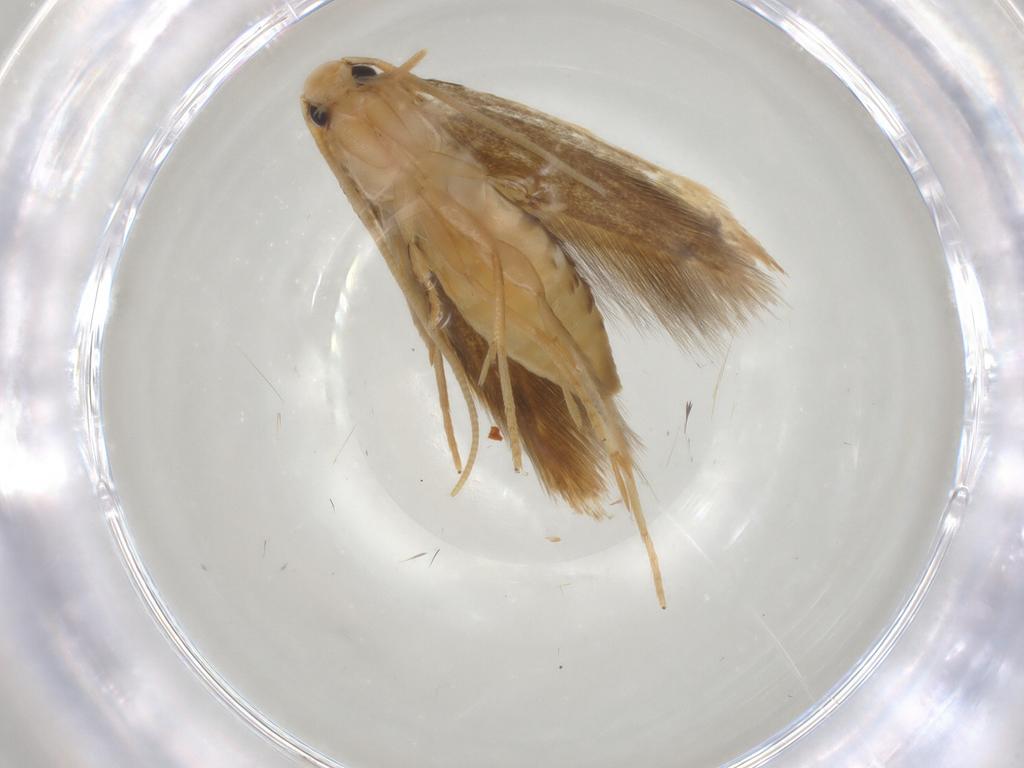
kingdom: Animalia
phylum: Arthropoda
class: Insecta
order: Lepidoptera
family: Tineidae
